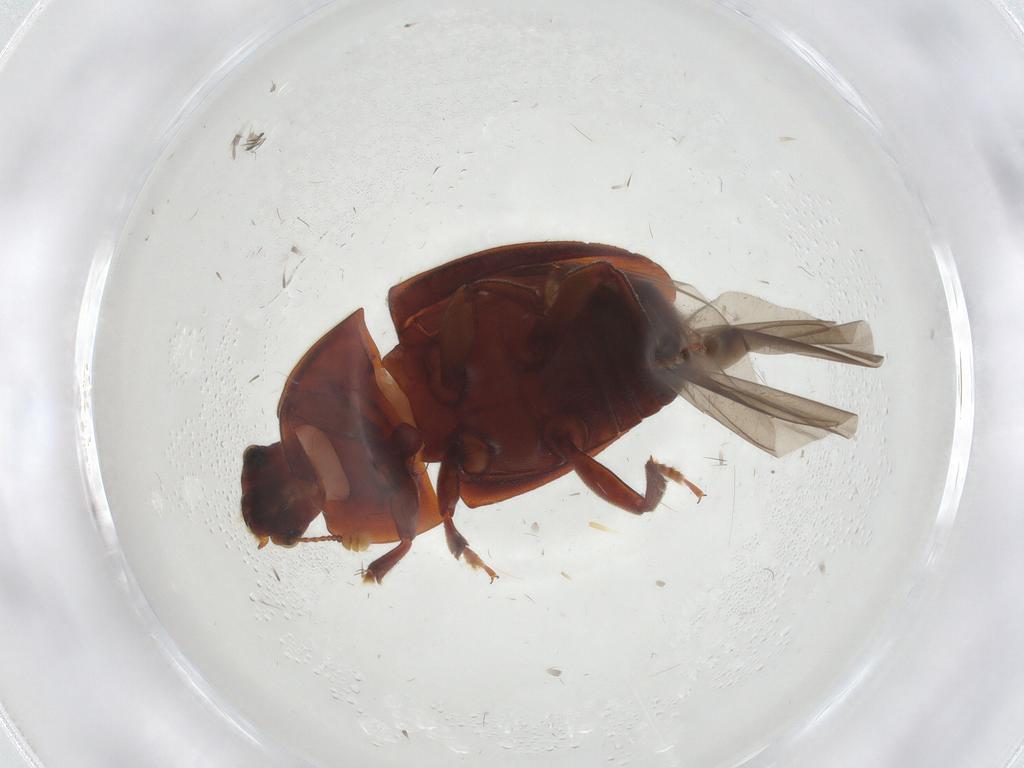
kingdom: Animalia
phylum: Arthropoda
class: Insecta
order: Coleoptera
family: Nitidulidae
